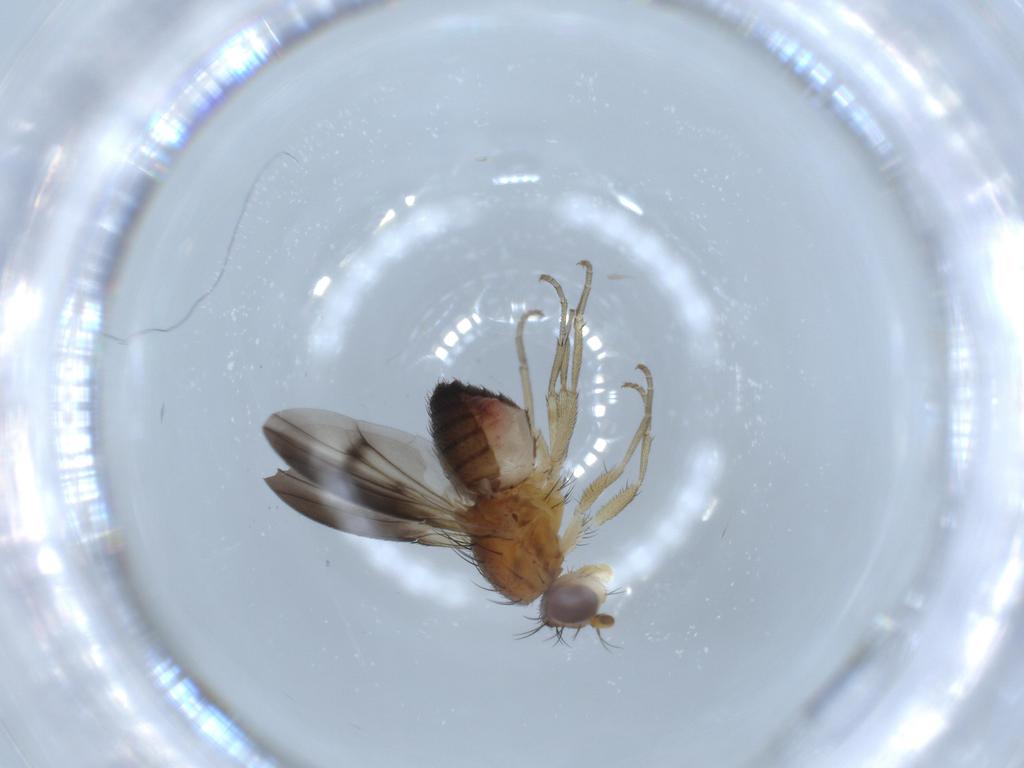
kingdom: Animalia
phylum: Arthropoda
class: Insecta
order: Diptera
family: Heleomyzidae
